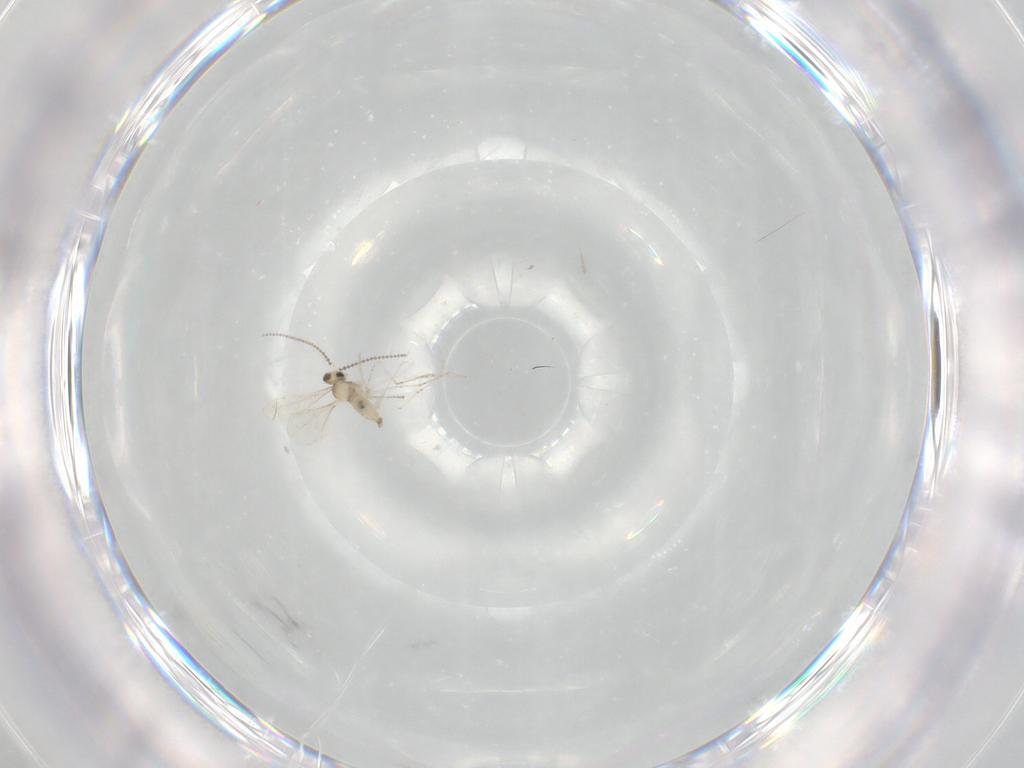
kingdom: Animalia
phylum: Arthropoda
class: Insecta
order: Diptera
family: Cecidomyiidae
